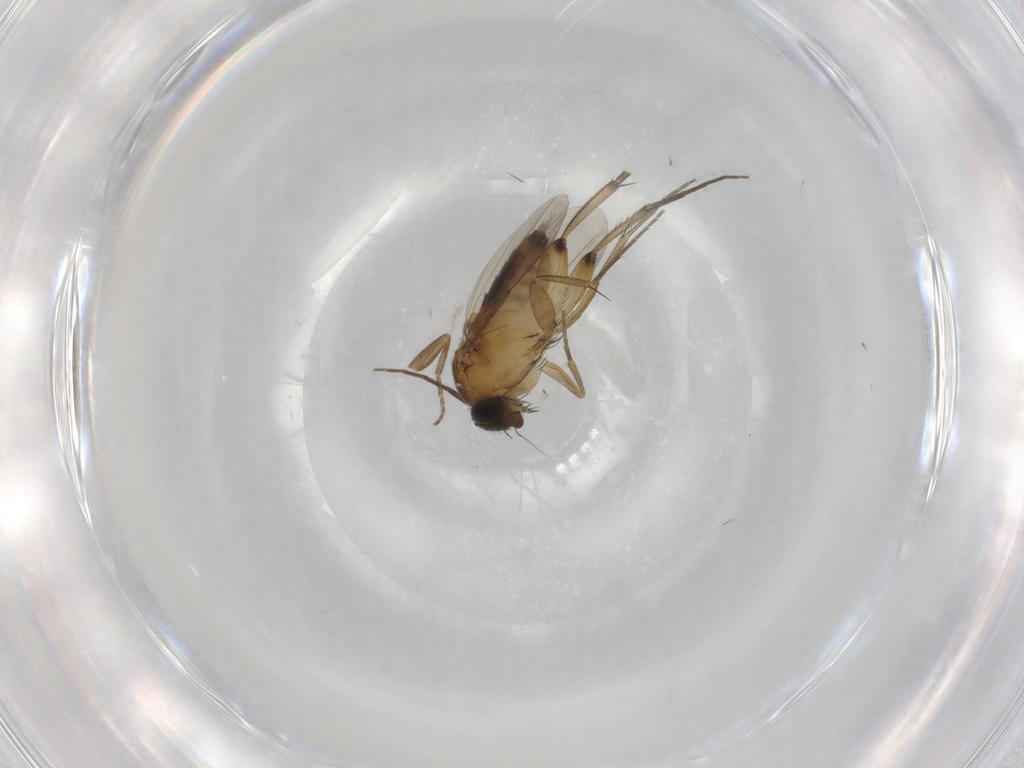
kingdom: Animalia
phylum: Arthropoda
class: Insecta
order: Diptera
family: Phoridae
